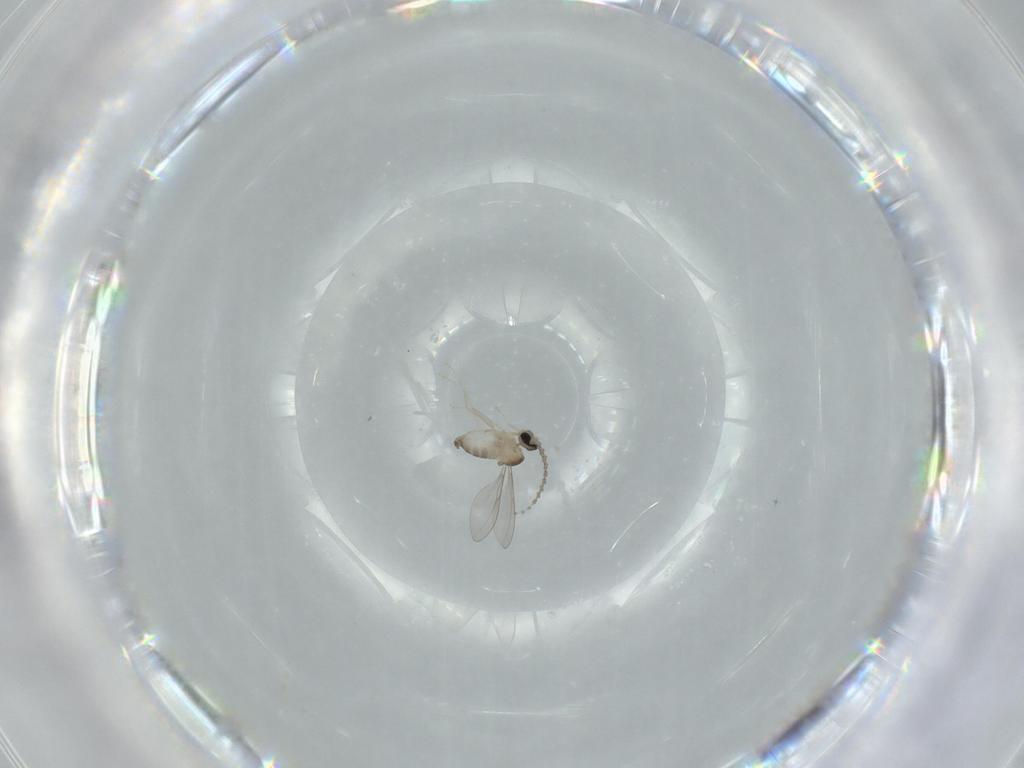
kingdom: Animalia
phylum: Arthropoda
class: Insecta
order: Diptera
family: Cecidomyiidae
